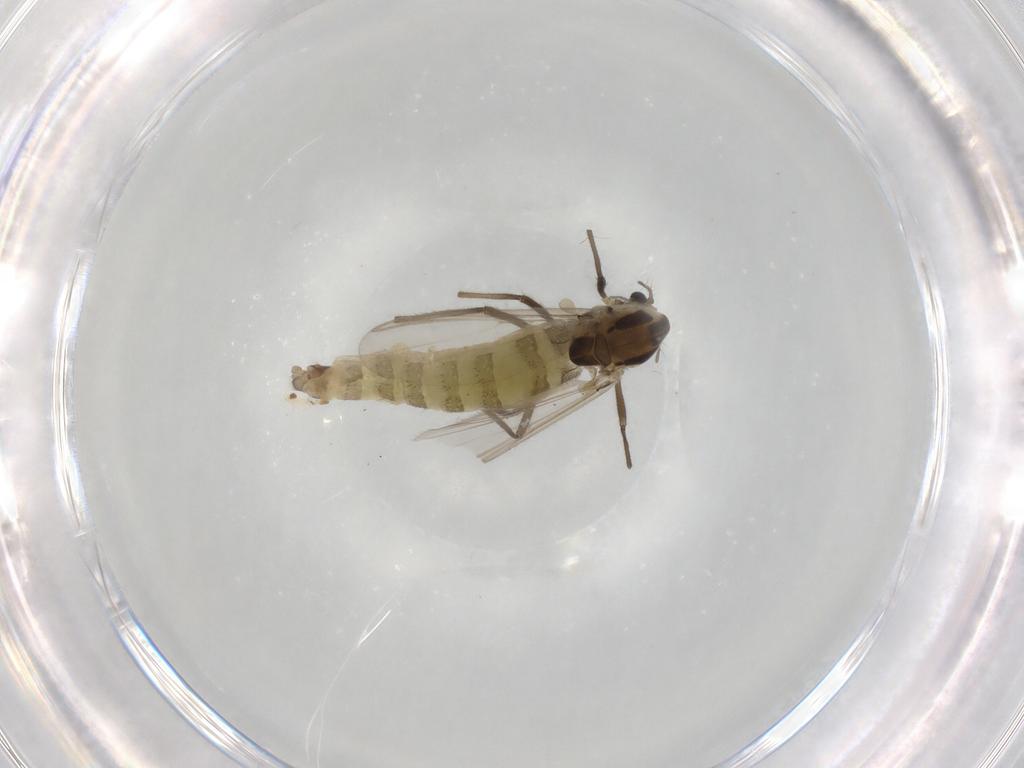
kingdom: Animalia
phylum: Arthropoda
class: Insecta
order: Diptera
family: Chironomidae
